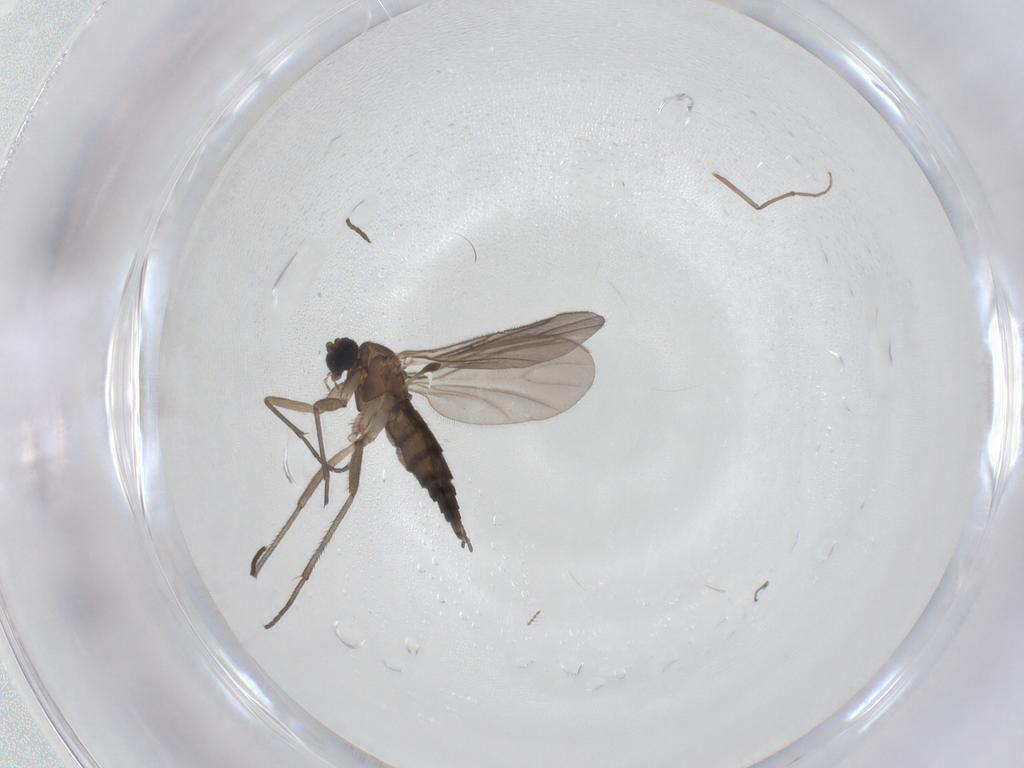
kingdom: Animalia
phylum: Arthropoda
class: Insecta
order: Diptera
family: Sciaridae
